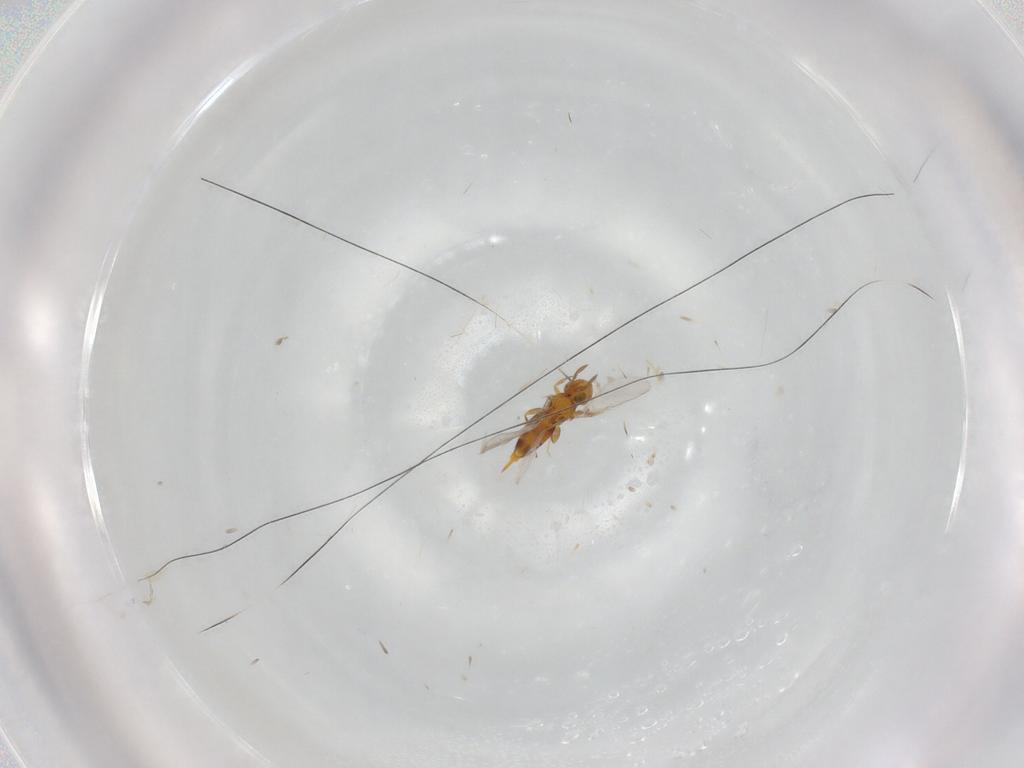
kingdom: Animalia
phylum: Arthropoda
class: Insecta
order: Hymenoptera
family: Aphelinidae
